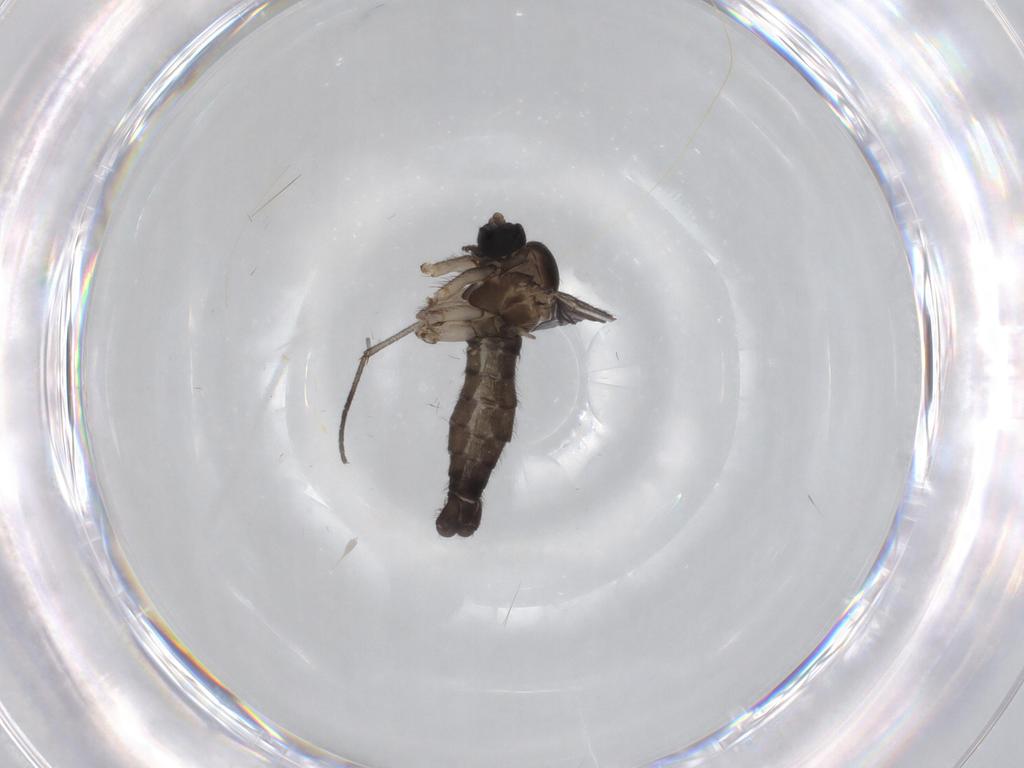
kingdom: Animalia
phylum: Arthropoda
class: Insecta
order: Diptera
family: Sciaridae
